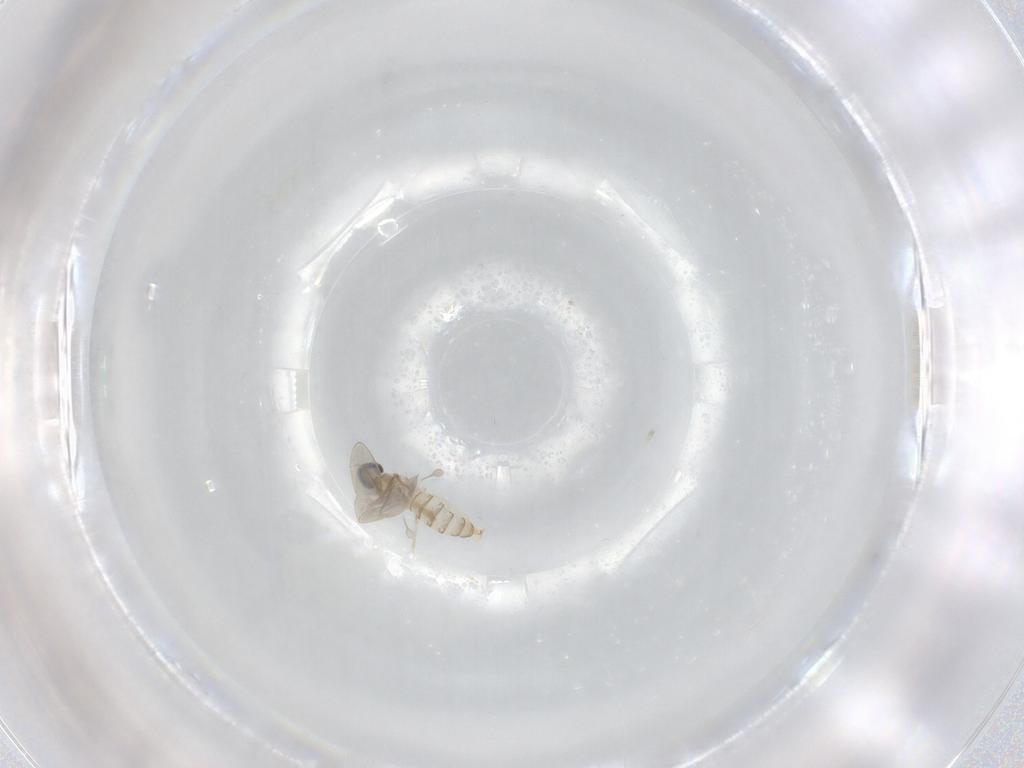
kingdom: Animalia
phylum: Arthropoda
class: Insecta
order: Diptera
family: Cecidomyiidae
